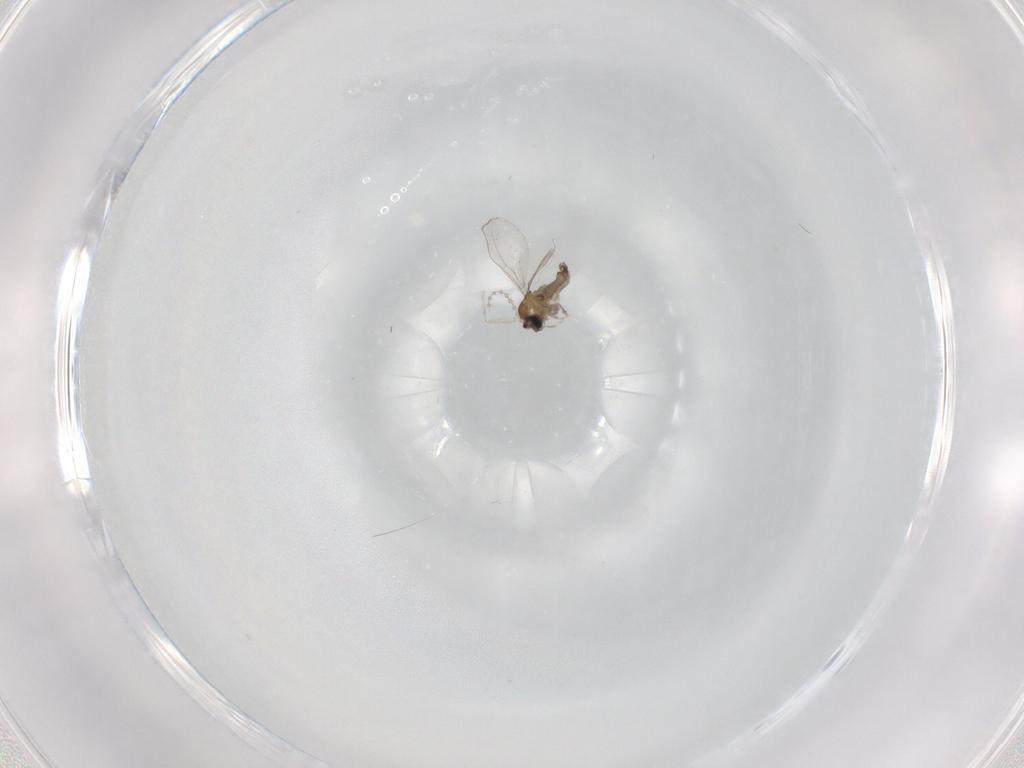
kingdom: Animalia
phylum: Arthropoda
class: Insecta
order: Diptera
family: Cecidomyiidae
